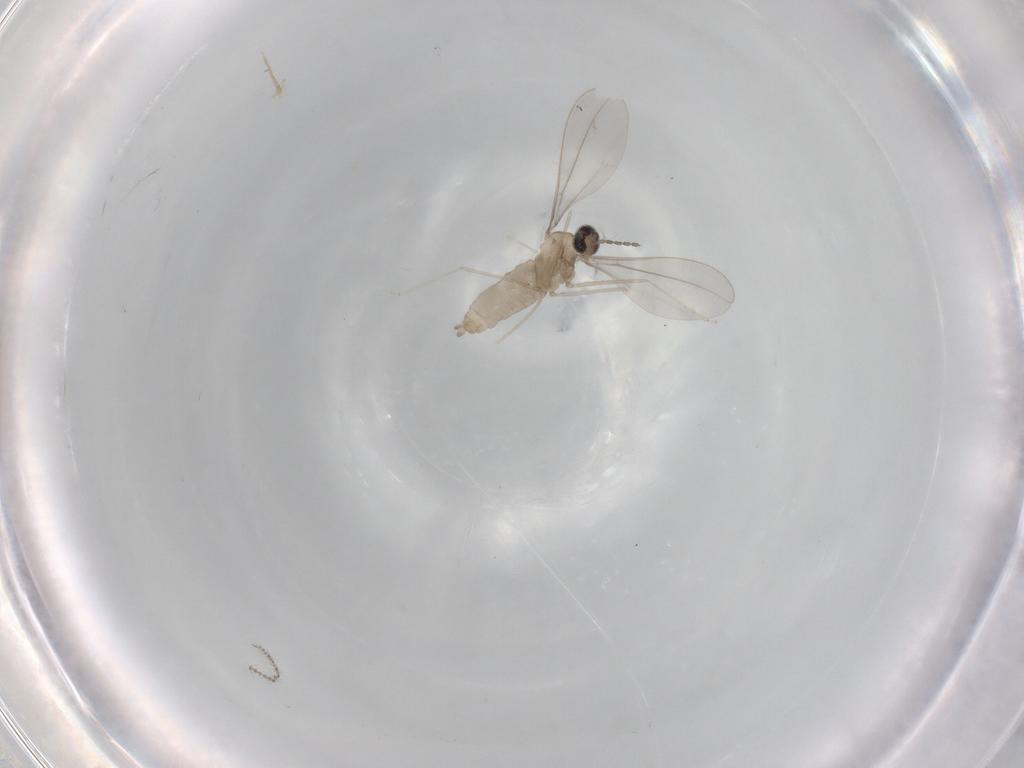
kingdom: Animalia
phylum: Arthropoda
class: Insecta
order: Diptera
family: Cecidomyiidae
